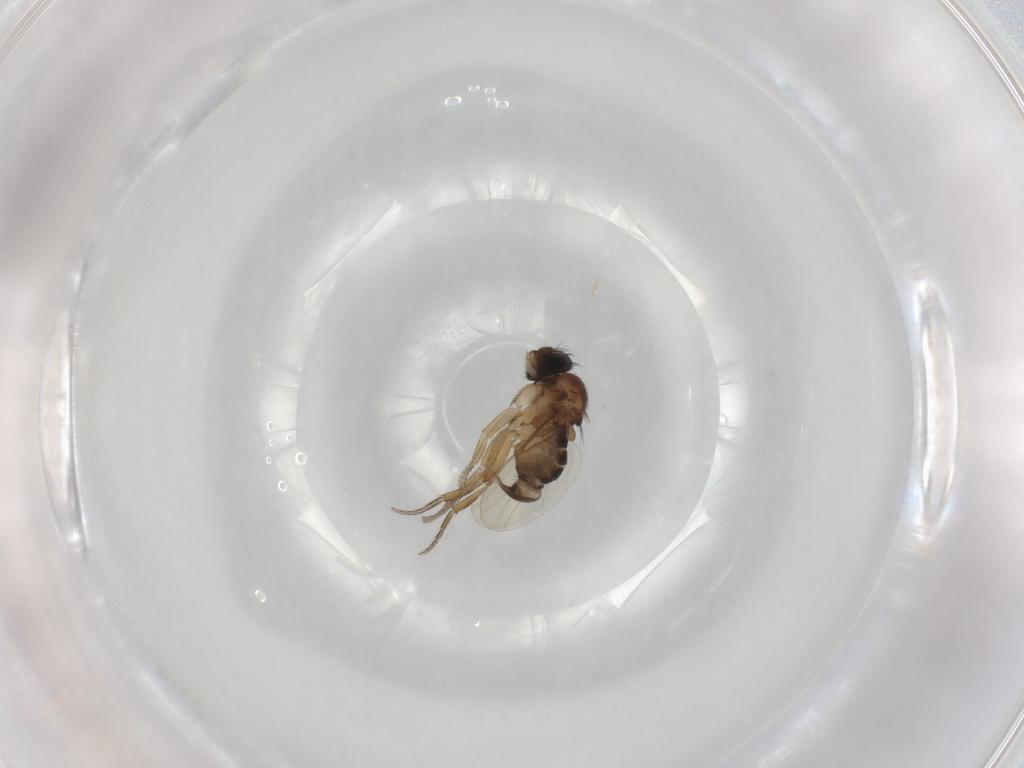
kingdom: Animalia
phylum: Arthropoda
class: Insecta
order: Diptera
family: Phoridae
